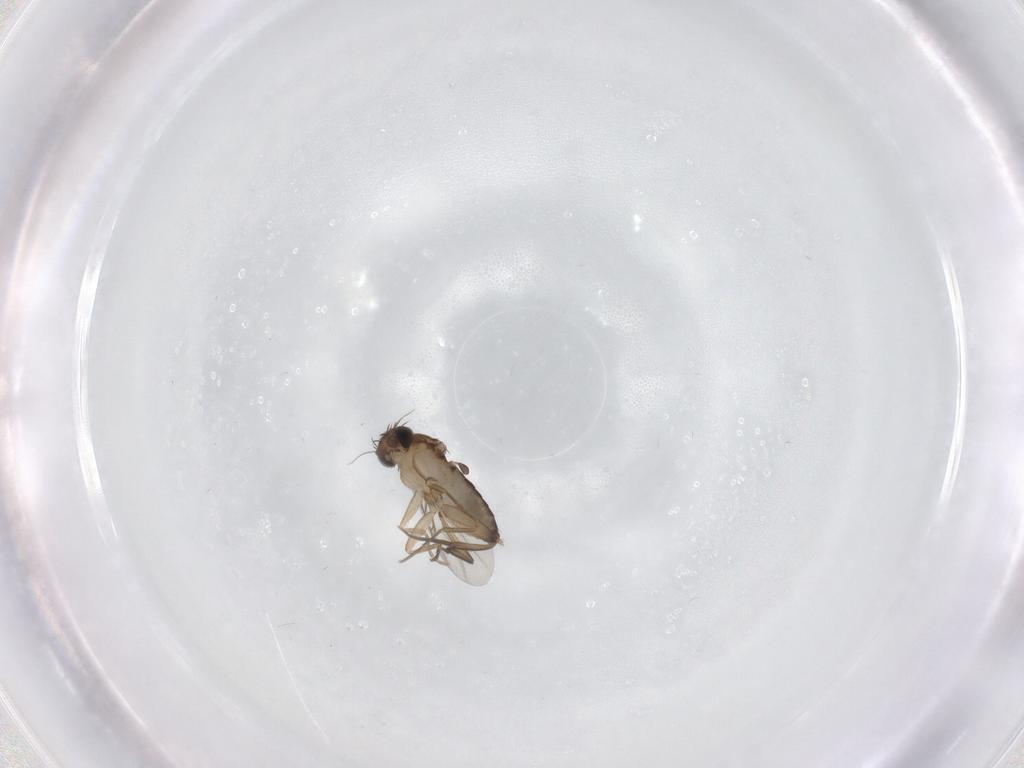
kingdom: Animalia
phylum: Arthropoda
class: Insecta
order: Diptera
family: Phoridae
